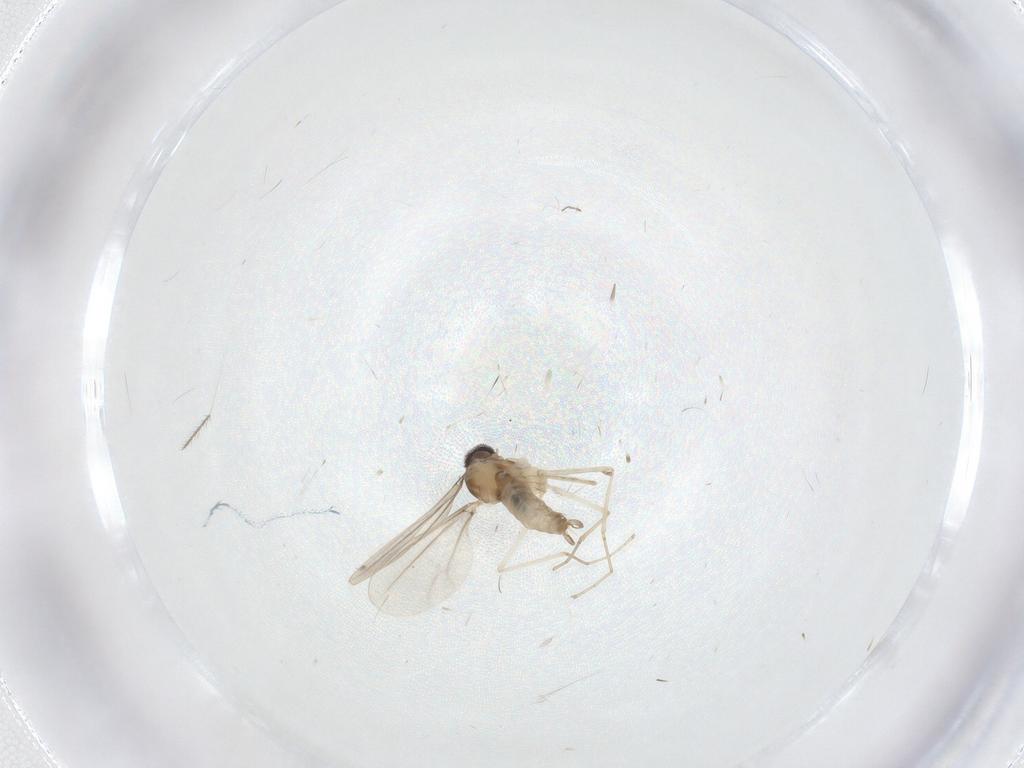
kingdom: Animalia
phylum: Arthropoda
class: Insecta
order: Diptera
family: Cecidomyiidae
